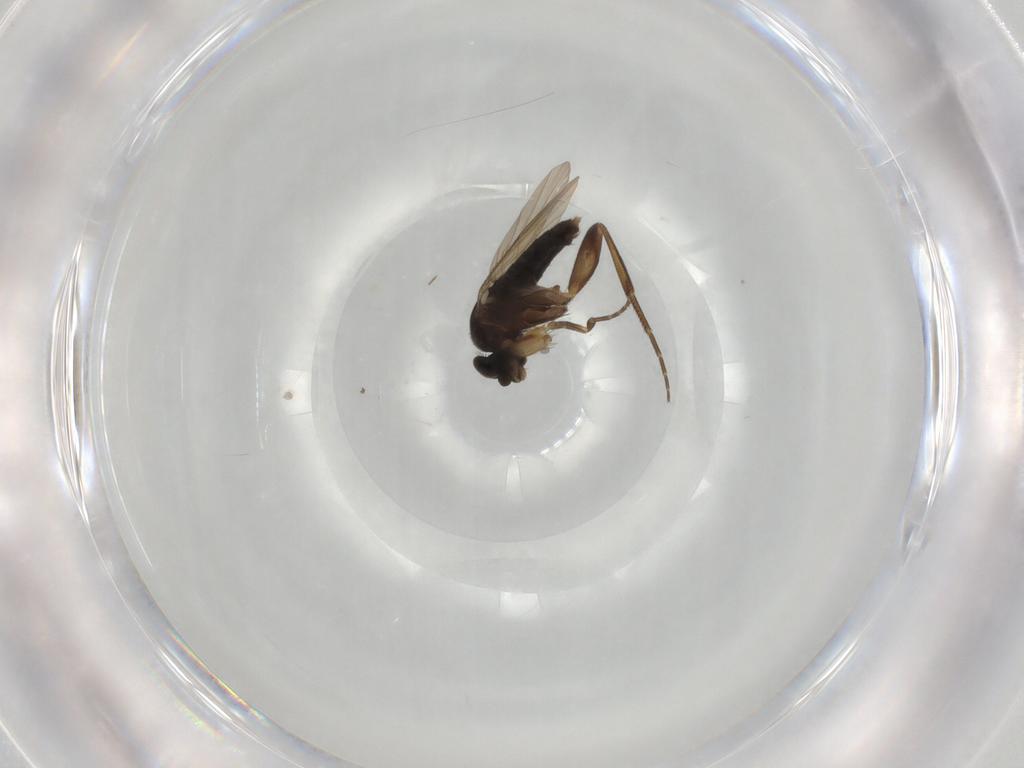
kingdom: Animalia
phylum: Arthropoda
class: Insecta
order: Diptera
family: Phoridae
